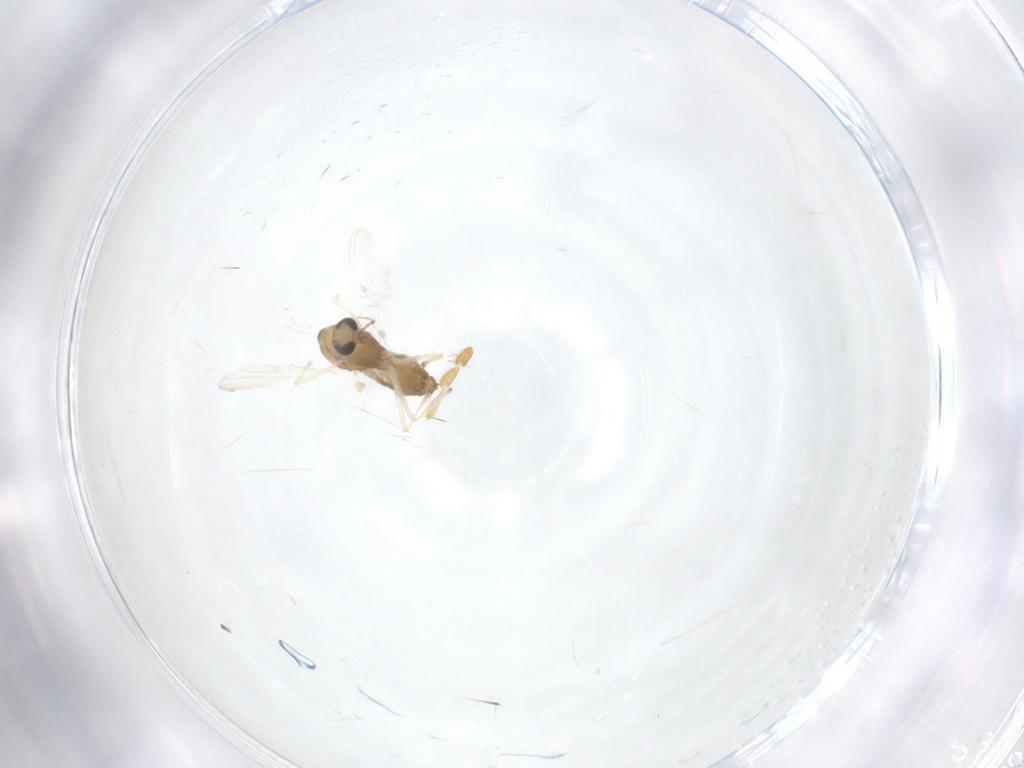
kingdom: Animalia
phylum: Arthropoda
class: Insecta
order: Diptera
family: Chironomidae
